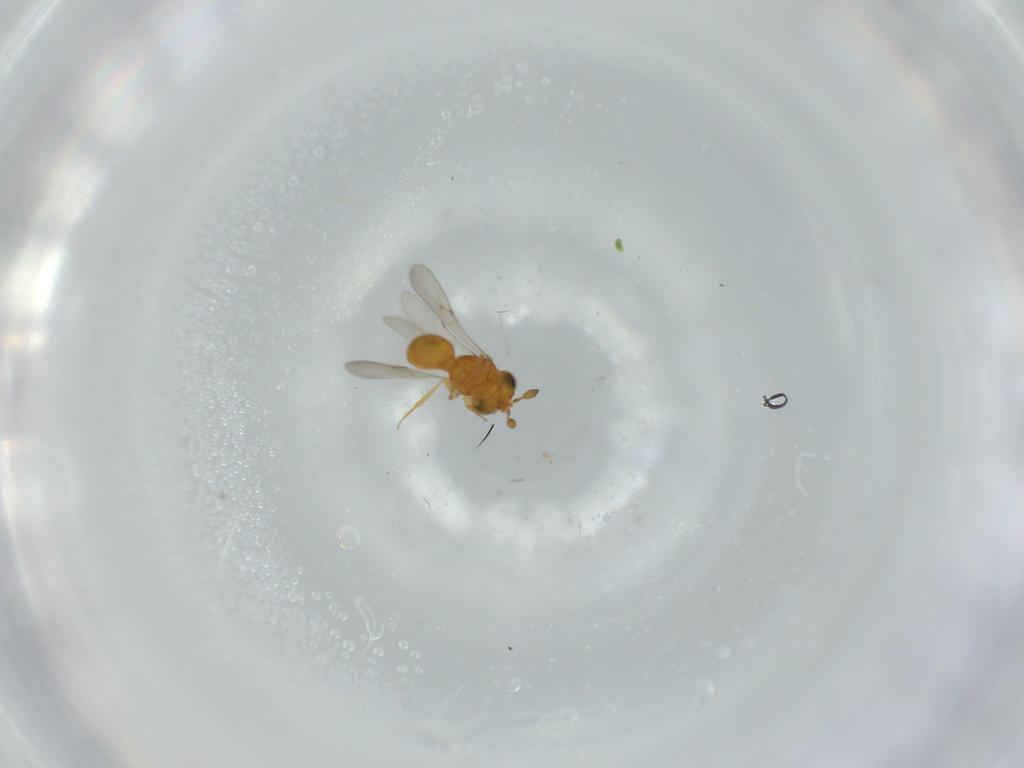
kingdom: Animalia
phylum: Arthropoda
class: Insecta
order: Hymenoptera
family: Scelionidae
